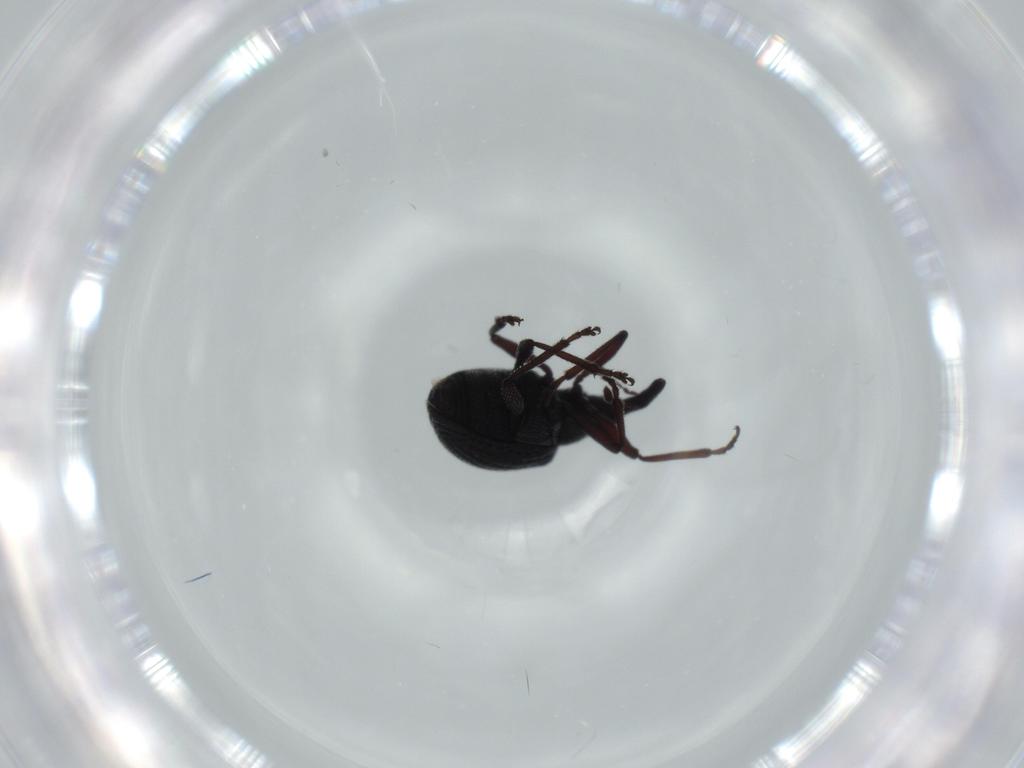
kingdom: Animalia
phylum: Arthropoda
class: Insecta
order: Coleoptera
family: Brentidae
